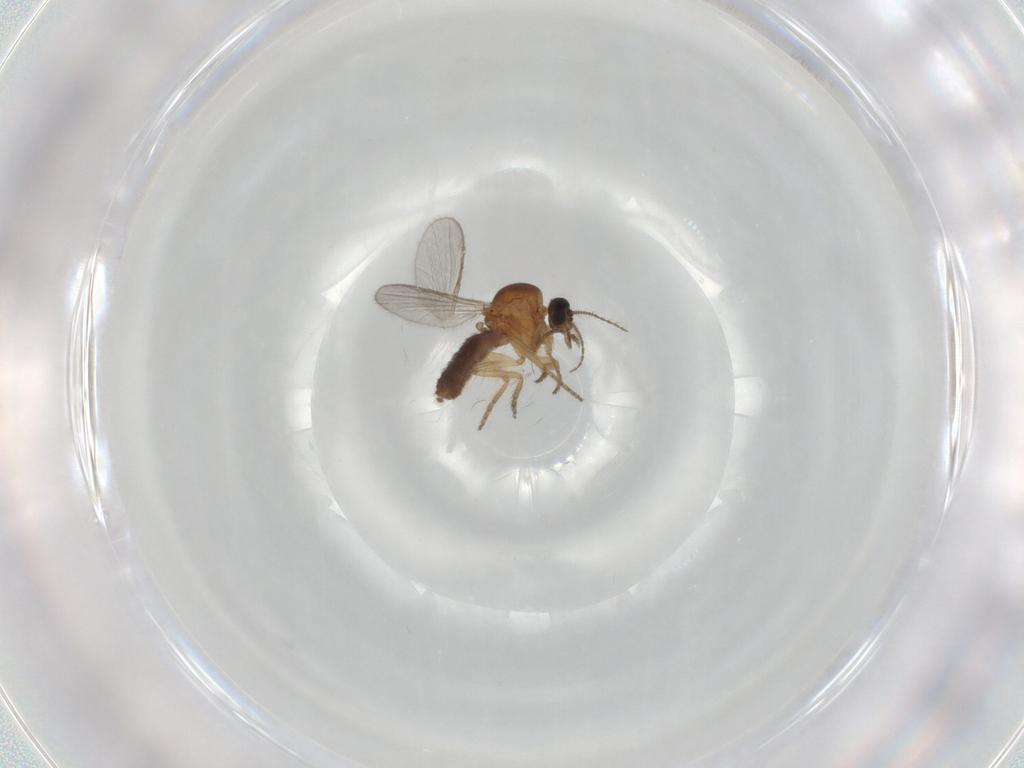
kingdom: Animalia
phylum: Arthropoda
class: Insecta
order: Diptera
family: Ceratopogonidae
